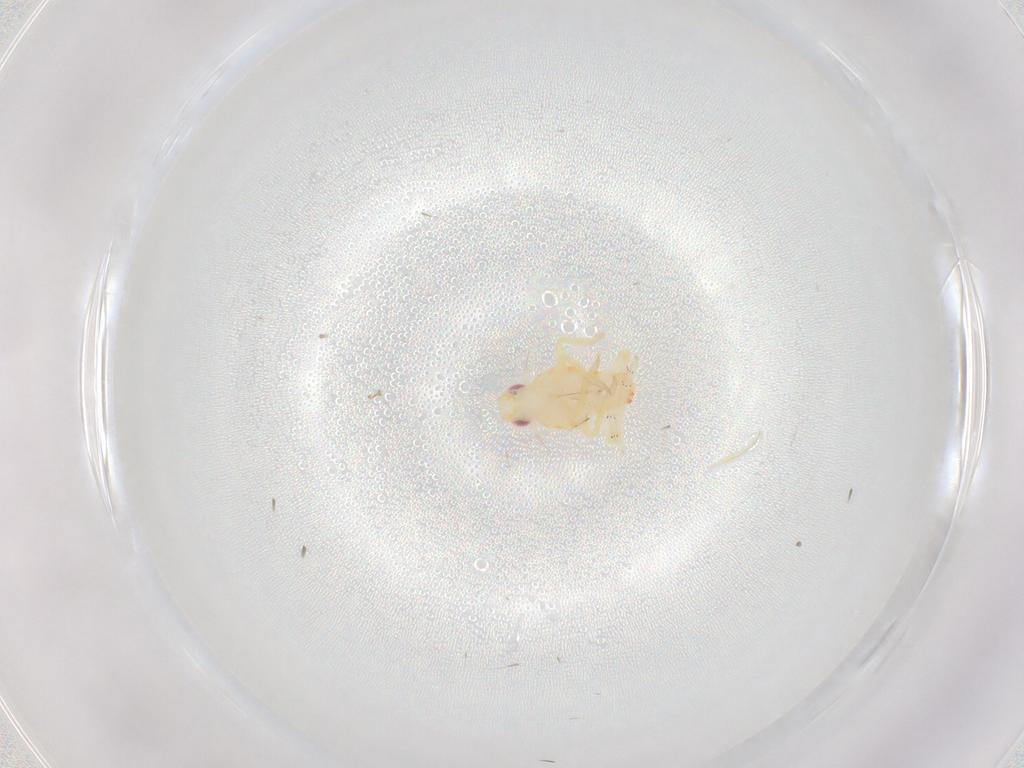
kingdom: Animalia
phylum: Arthropoda
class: Insecta
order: Hemiptera
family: Tropiduchidae
